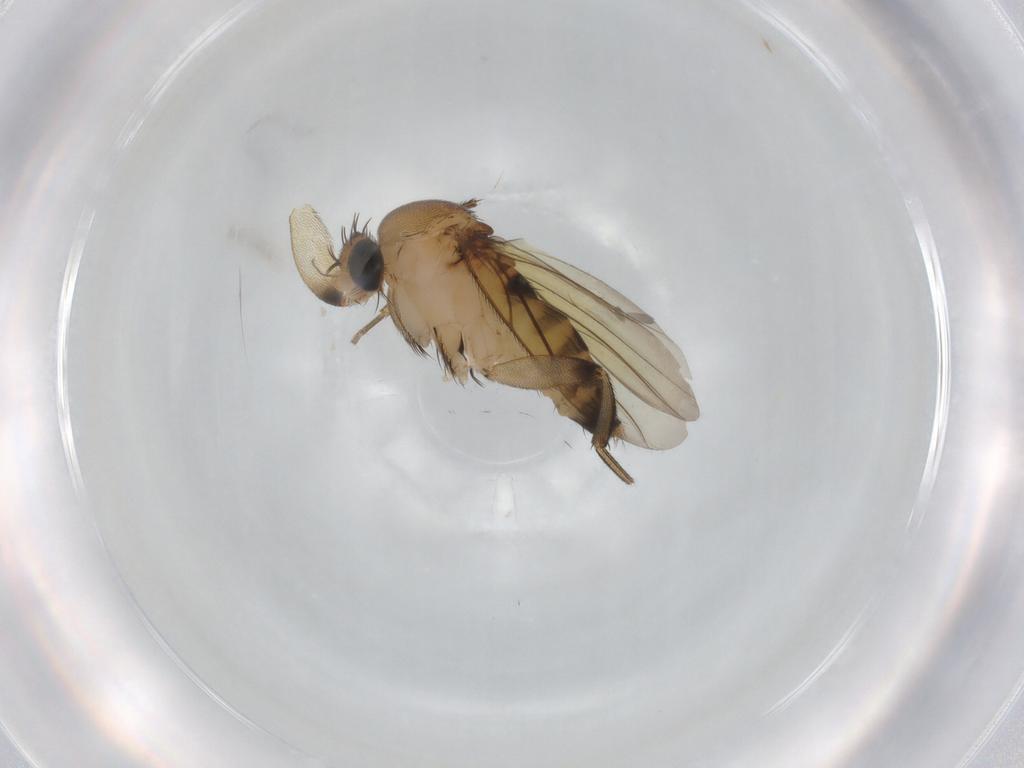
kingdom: Animalia
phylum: Arthropoda
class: Insecta
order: Diptera
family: Phoridae
